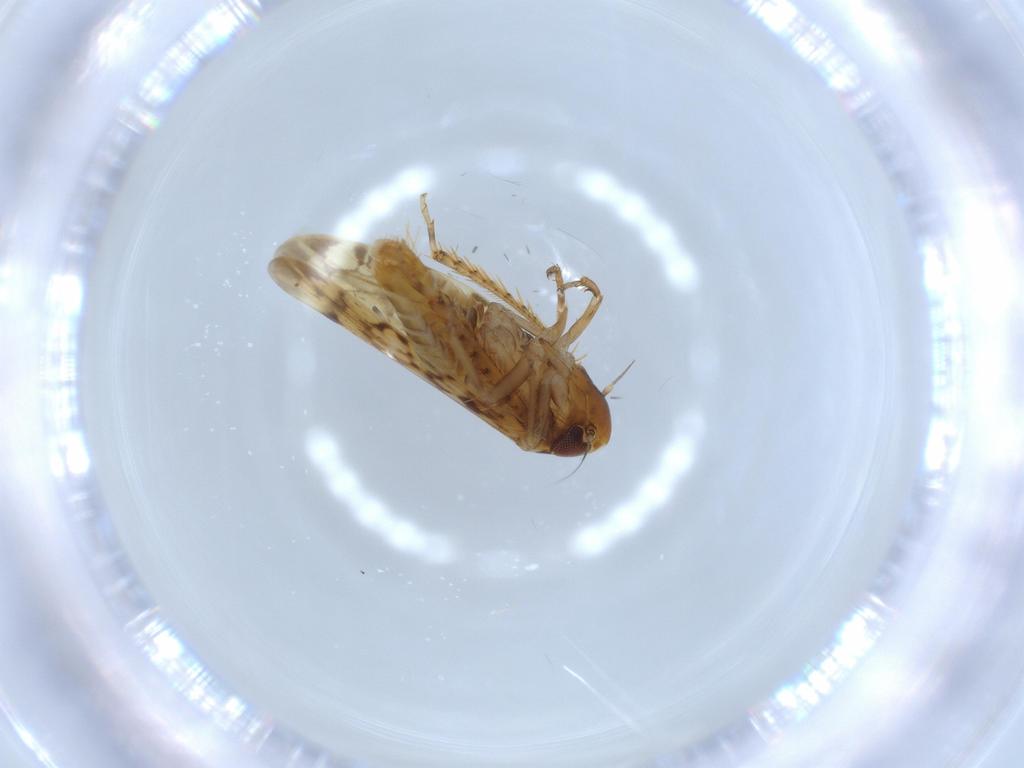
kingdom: Animalia
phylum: Arthropoda
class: Insecta
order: Hemiptera
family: Cicadellidae
